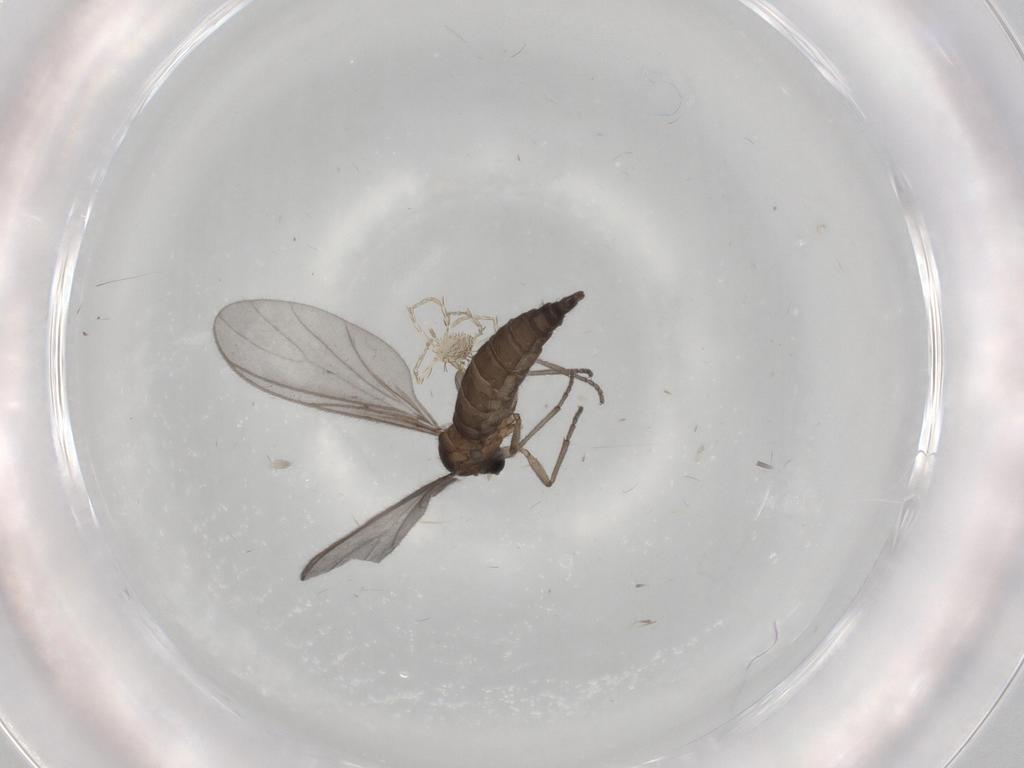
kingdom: Animalia
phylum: Arthropoda
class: Insecta
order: Diptera
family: Sciaridae
